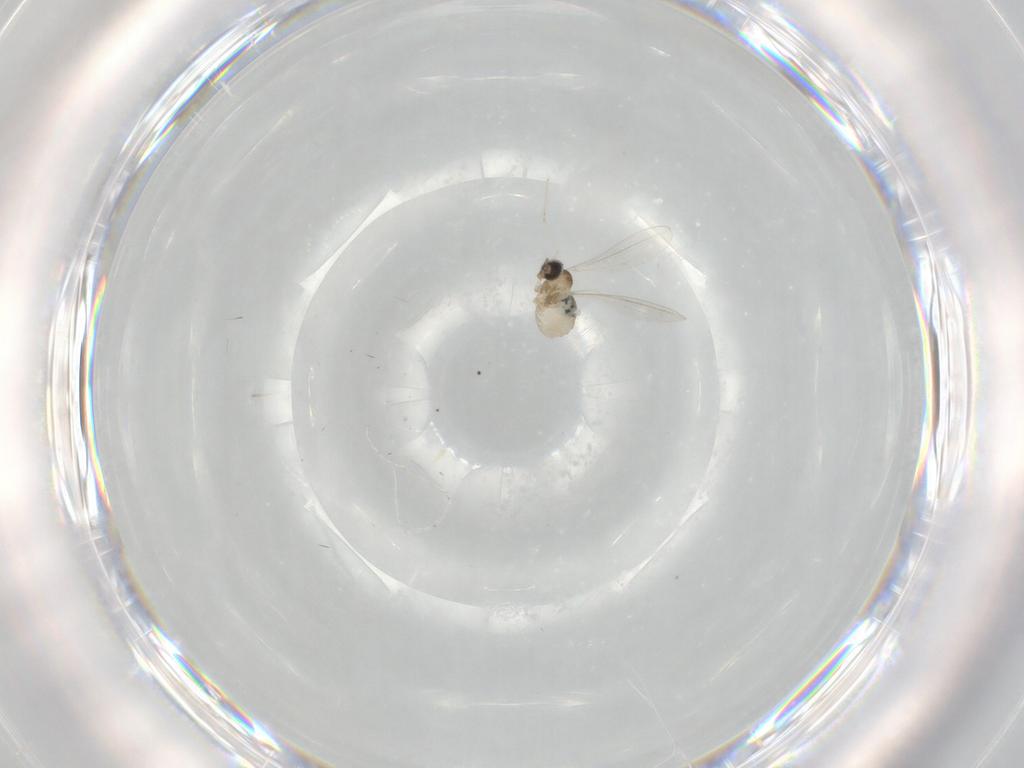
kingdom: Animalia
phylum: Arthropoda
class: Insecta
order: Diptera
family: Cecidomyiidae
